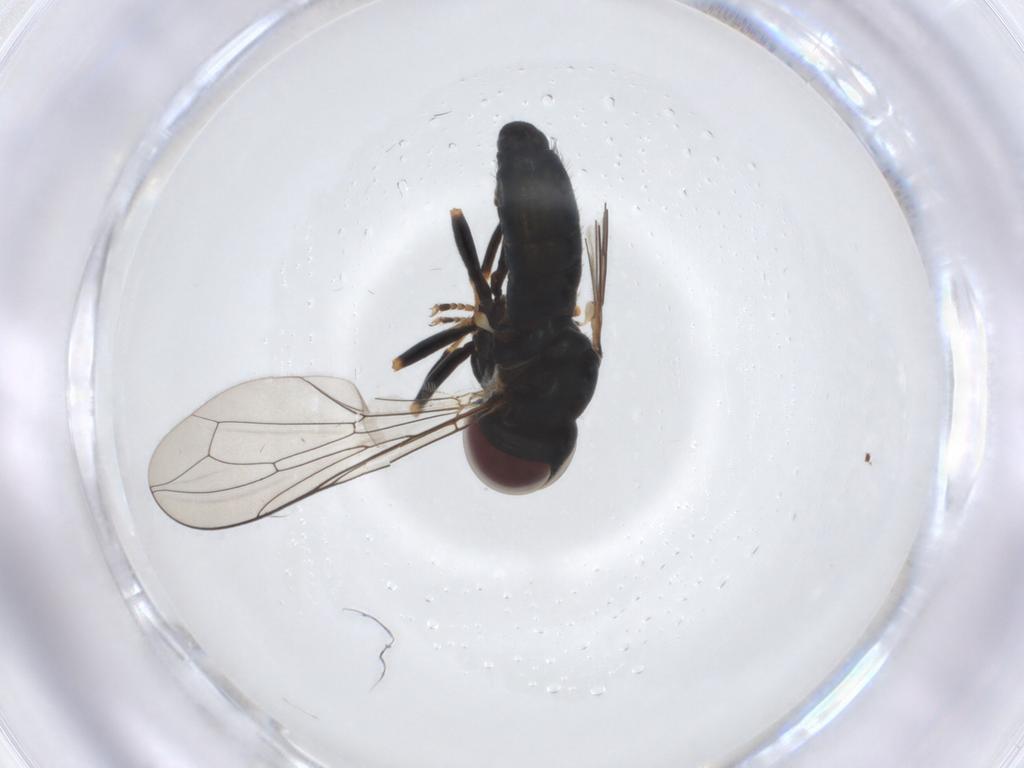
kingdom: Animalia
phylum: Arthropoda
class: Insecta
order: Diptera
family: Pipunculidae
